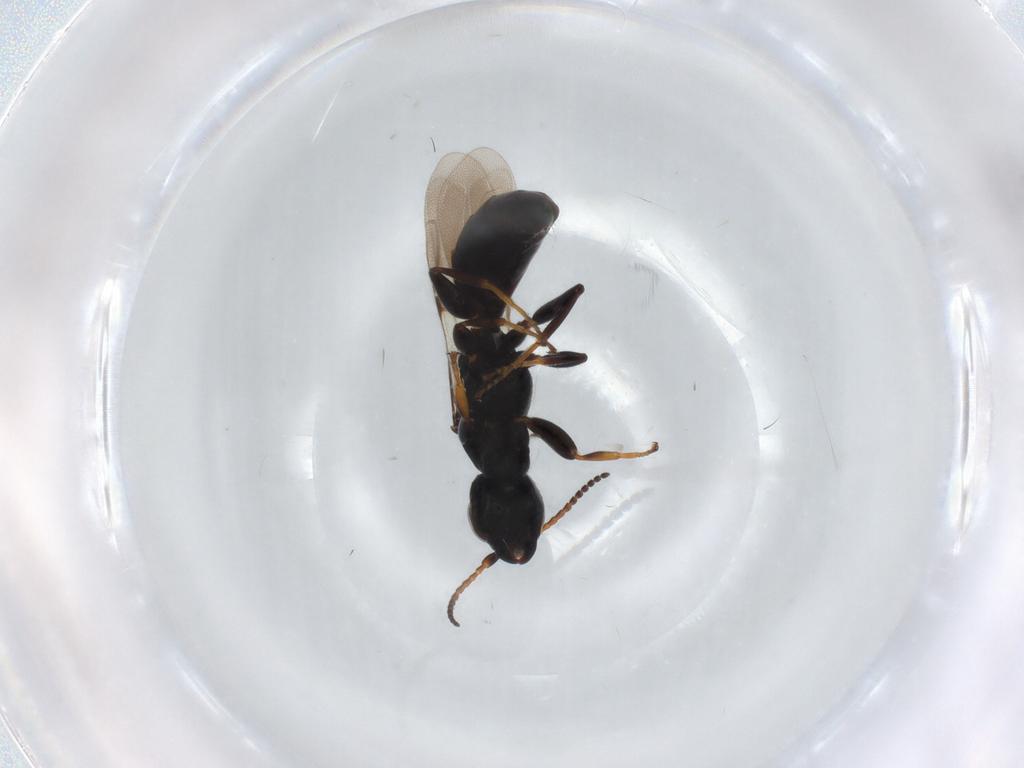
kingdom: Animalia
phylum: Arthropoda
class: Insecta
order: Hymenoptera
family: Bethylidae
